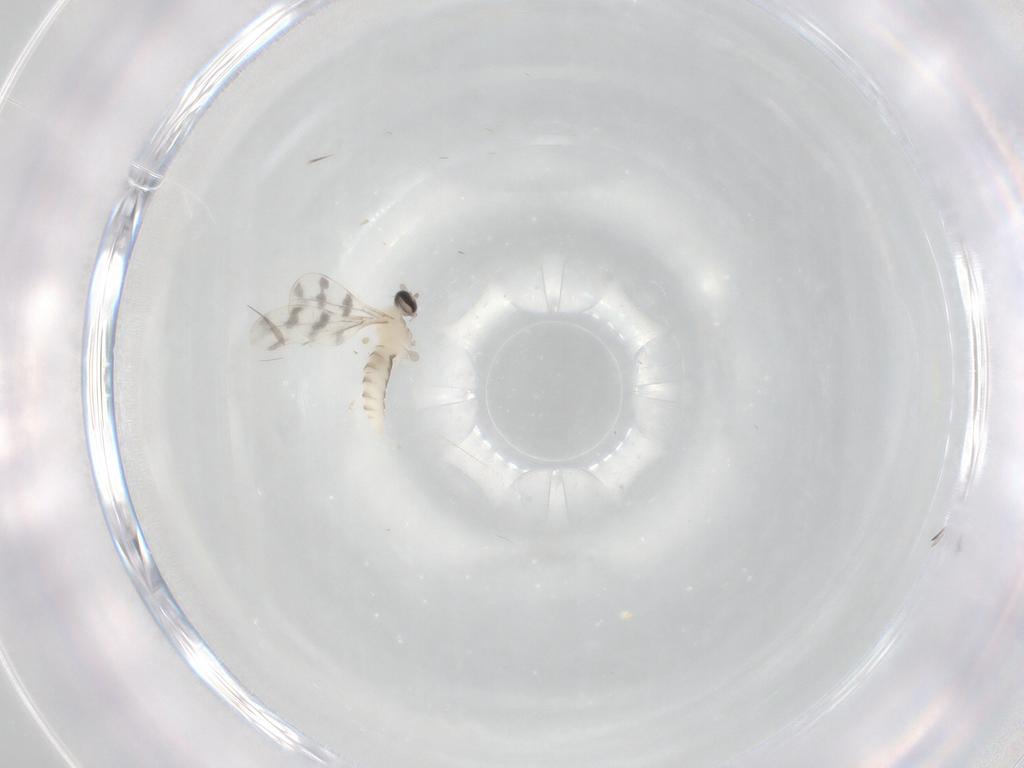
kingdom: Animalia
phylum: Arthropoda
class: Insecta
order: Diptera
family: Cecidomyiidae
